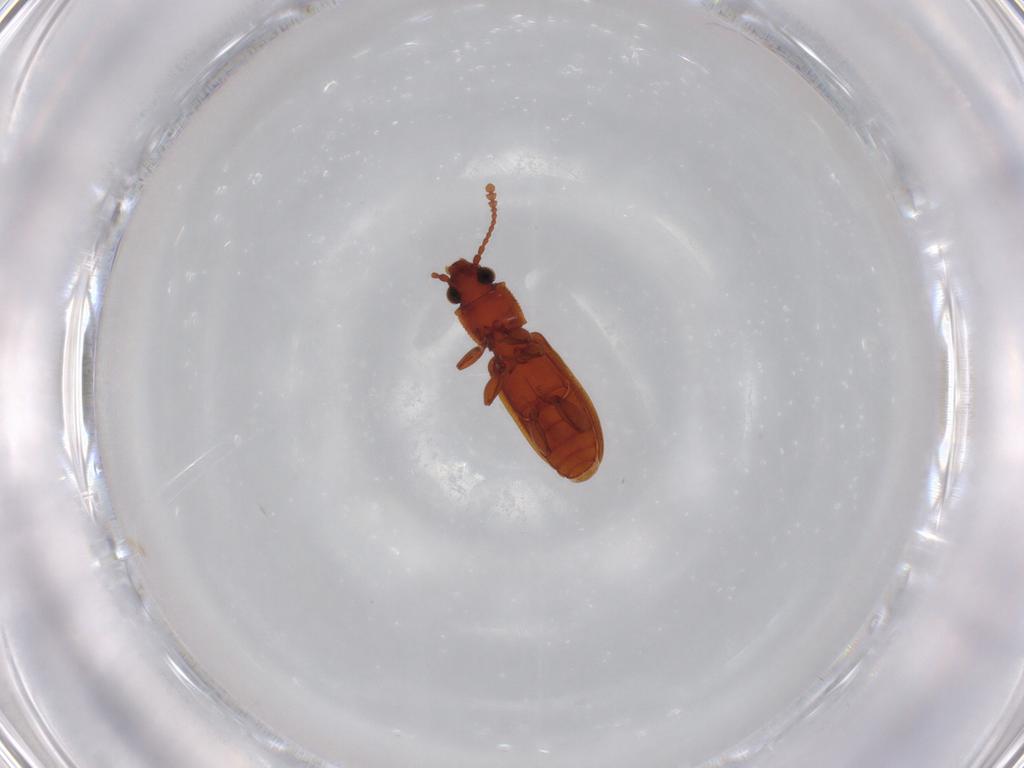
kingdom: Animalia
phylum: Arthropoda
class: Insecta
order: Coleoptera
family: Silvanidae
